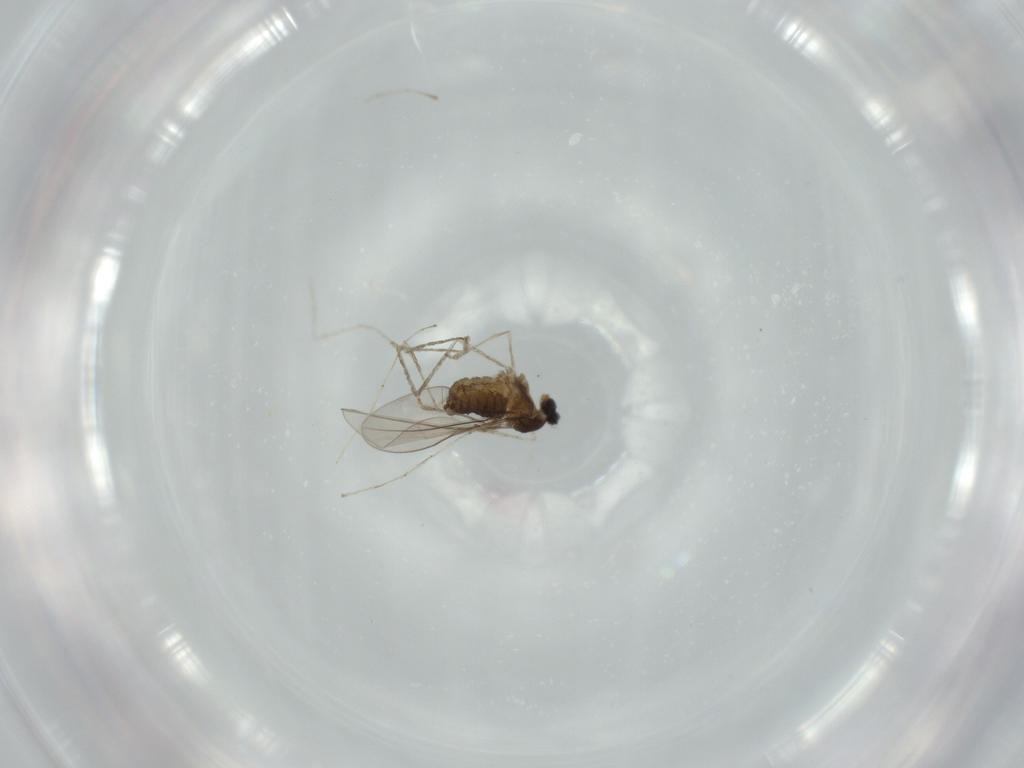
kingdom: Animalia
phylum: Arthropoda
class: Insecta
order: Diptera
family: Cecidomyiidae
